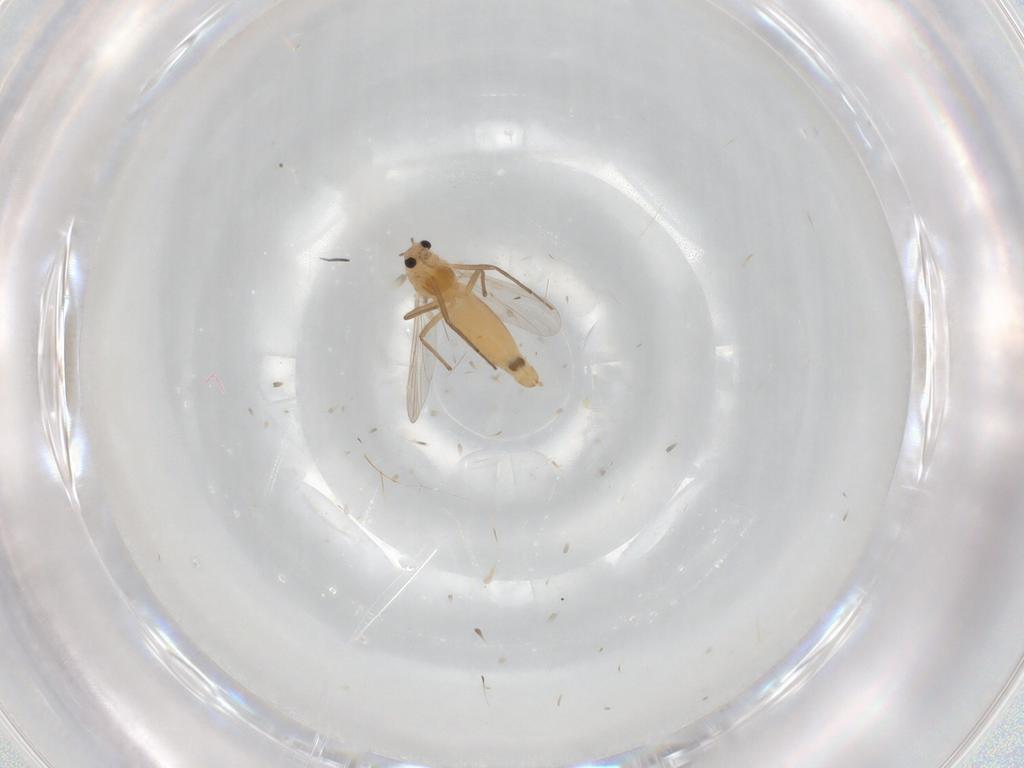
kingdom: Animalia
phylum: Arthropoda
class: Insecta
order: Diptera
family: Chironomidae
